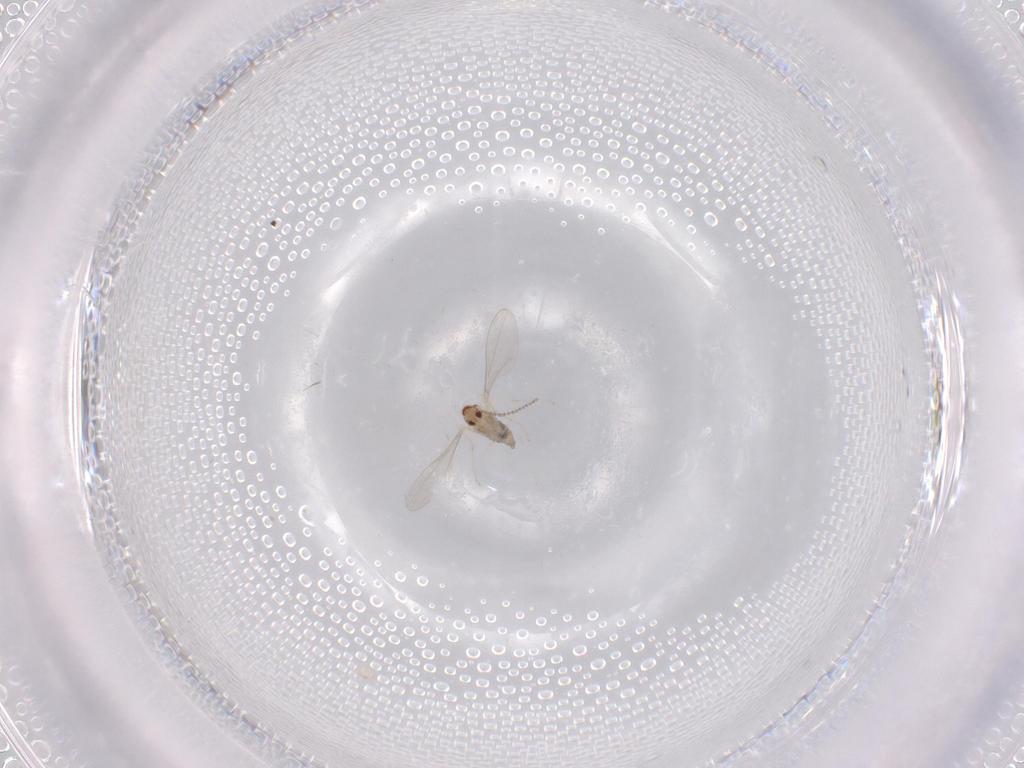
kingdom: Animalia
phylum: Arthropoda
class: Insecta
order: Diptera
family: Cecidomyiidae
